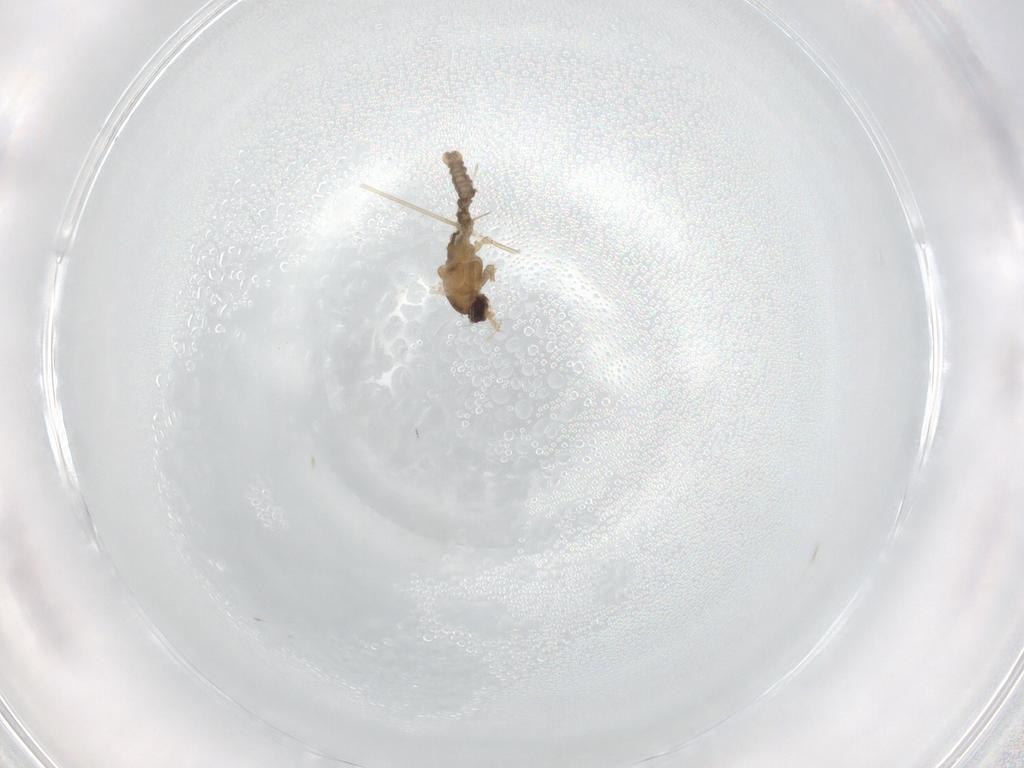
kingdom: Animalia
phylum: Arthropoda
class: Insecta
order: Diptera
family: Cecidomyiidae
